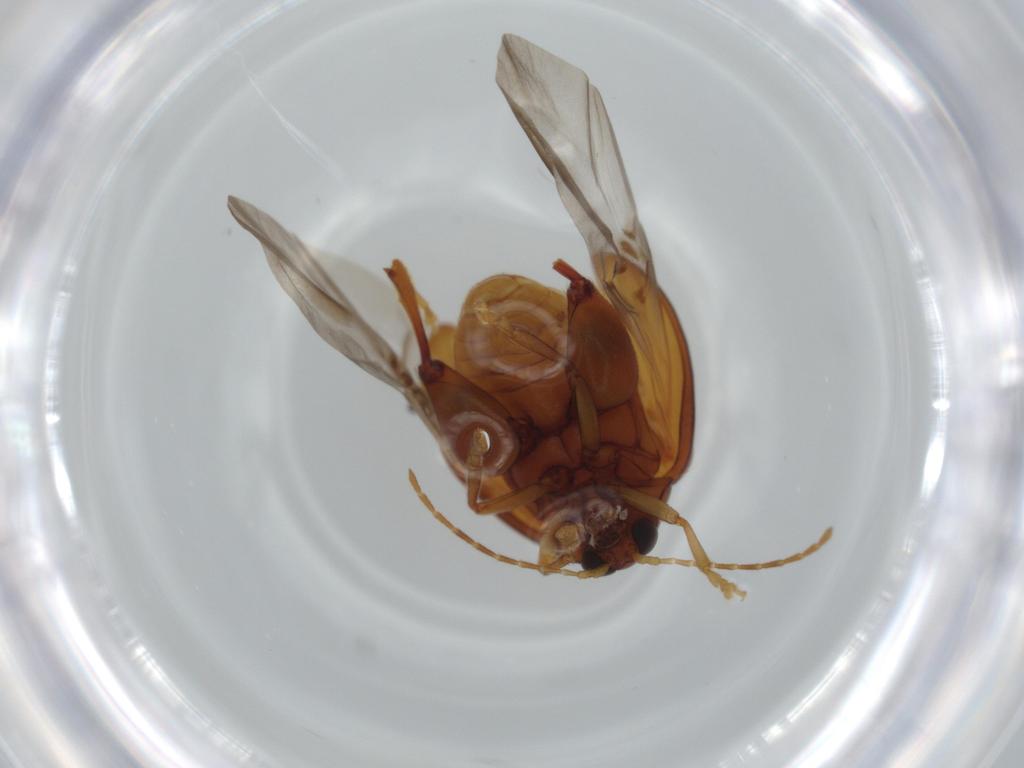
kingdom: Animalia
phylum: Arthropoda
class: Insecta
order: Coleoptera
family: Chrysomelidae
